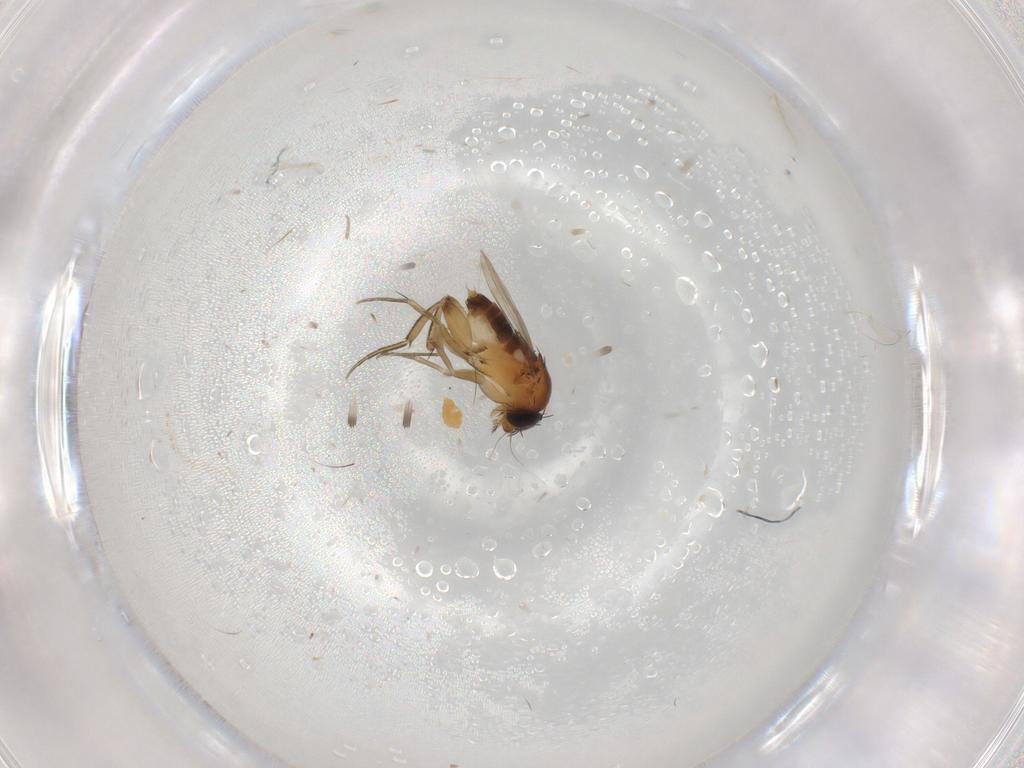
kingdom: Animalia
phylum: Arthropoda
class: Insecta
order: Diptera
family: Phoridae
